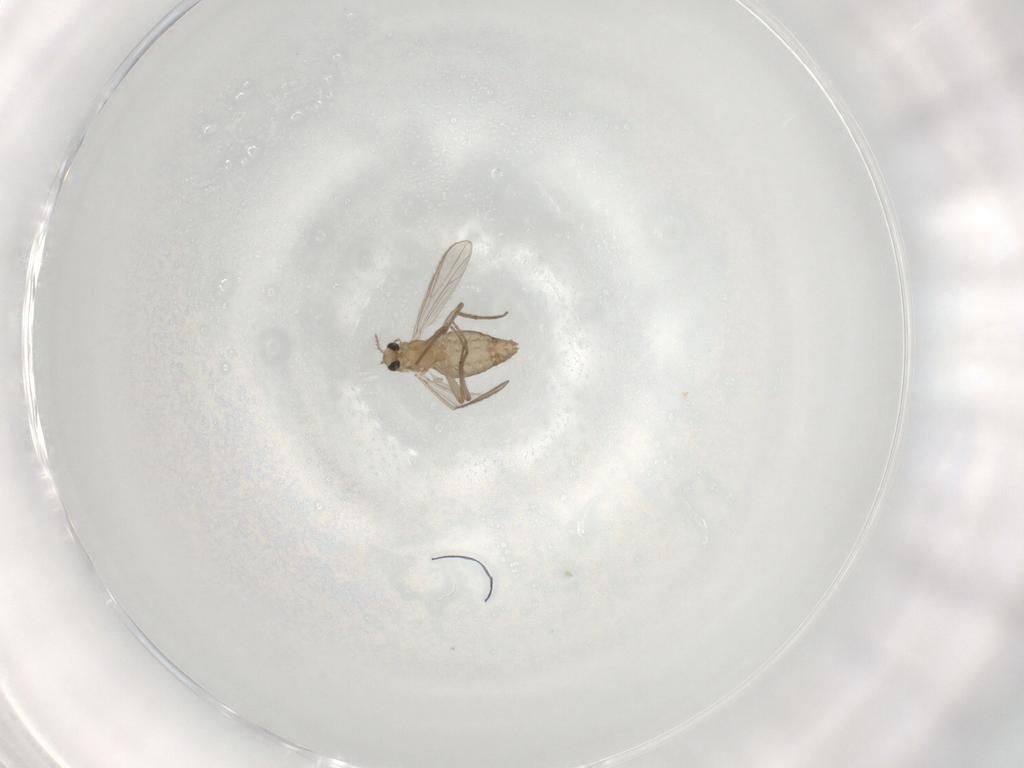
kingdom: Animalia
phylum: Arthropoda
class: Insecta
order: Diptera
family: Chironomidae
